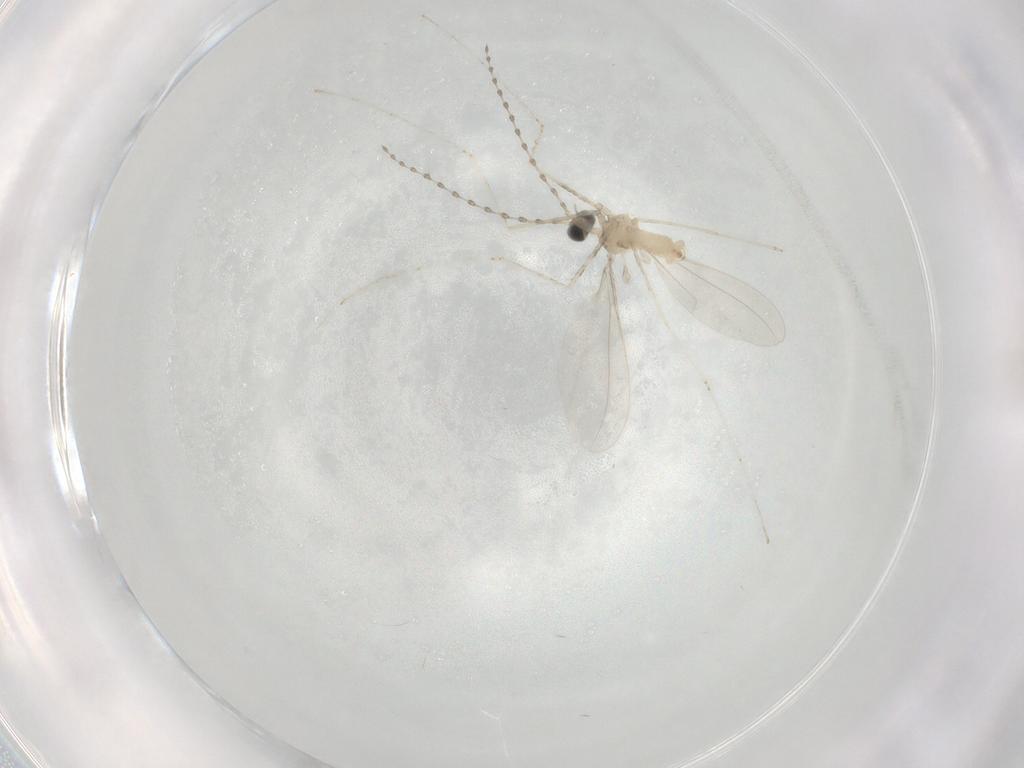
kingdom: Animalia
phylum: Arthropoda
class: Insecta
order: Diptera
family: Cecidomyiidae
